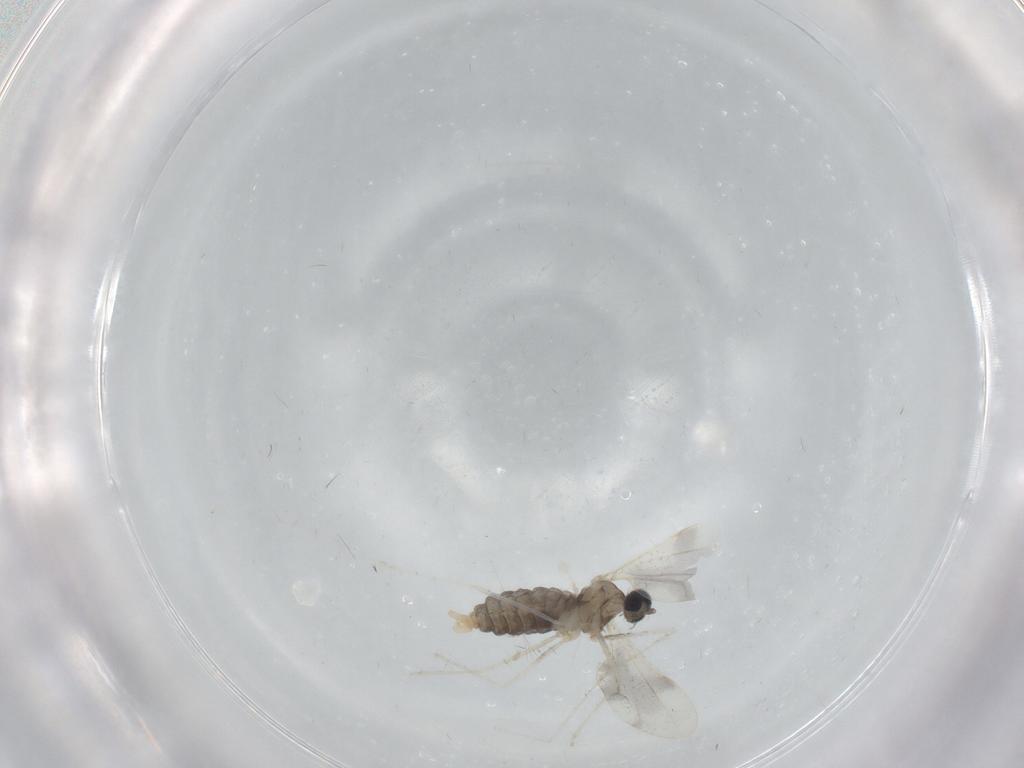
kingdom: Animalia
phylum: Arthropoda
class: Insecta
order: Diptera
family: Cecidomyiidae
